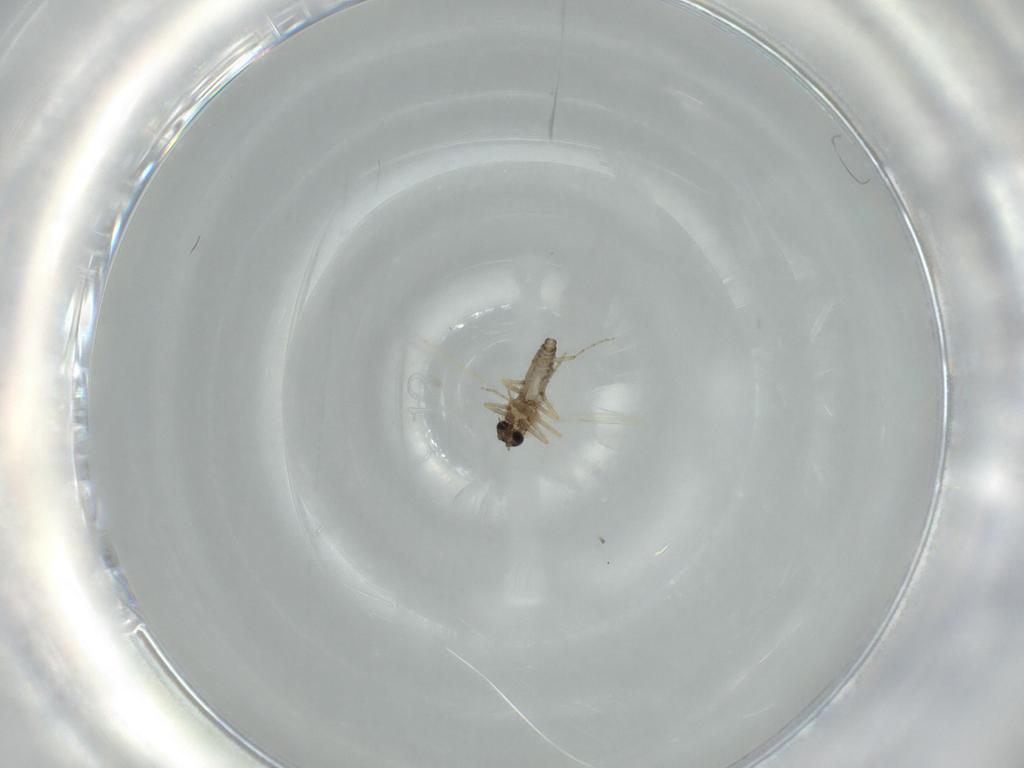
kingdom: Animalia
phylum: Arthropoda
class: Insecta
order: Diptera
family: Ceratopogonidae
